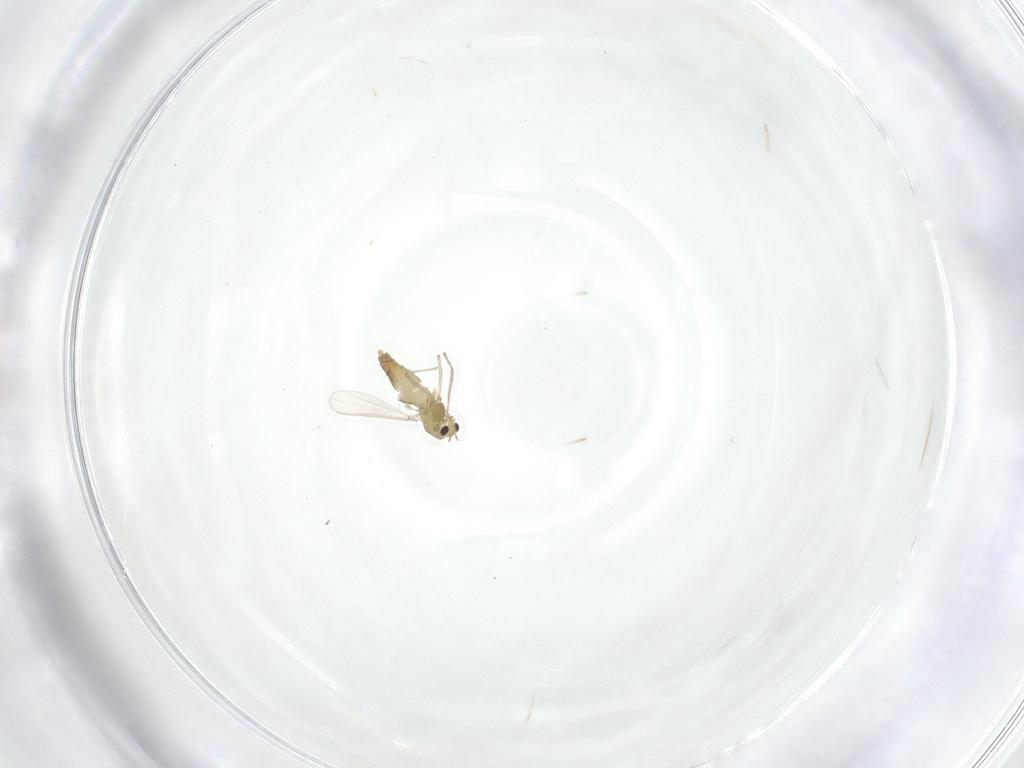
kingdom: Animalia
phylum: Arthropoda
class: Insecta
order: Diptera
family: Chironomidae
